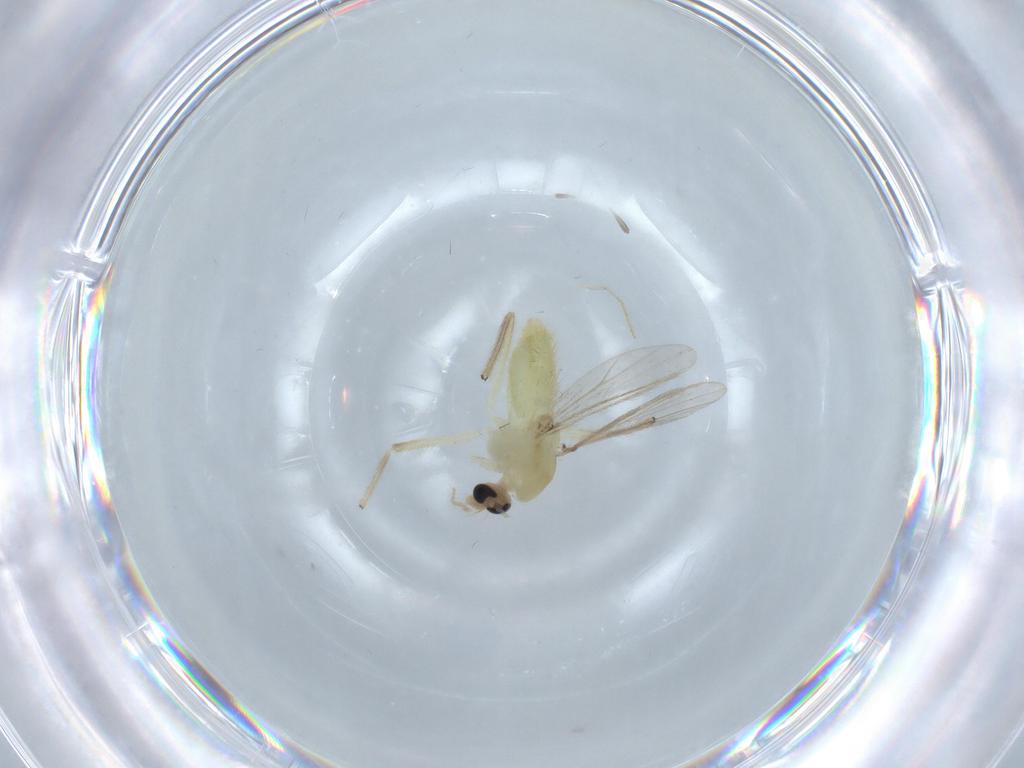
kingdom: Animalia
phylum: Arthropoda
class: Insecta
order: Diptera
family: Chironomidae
